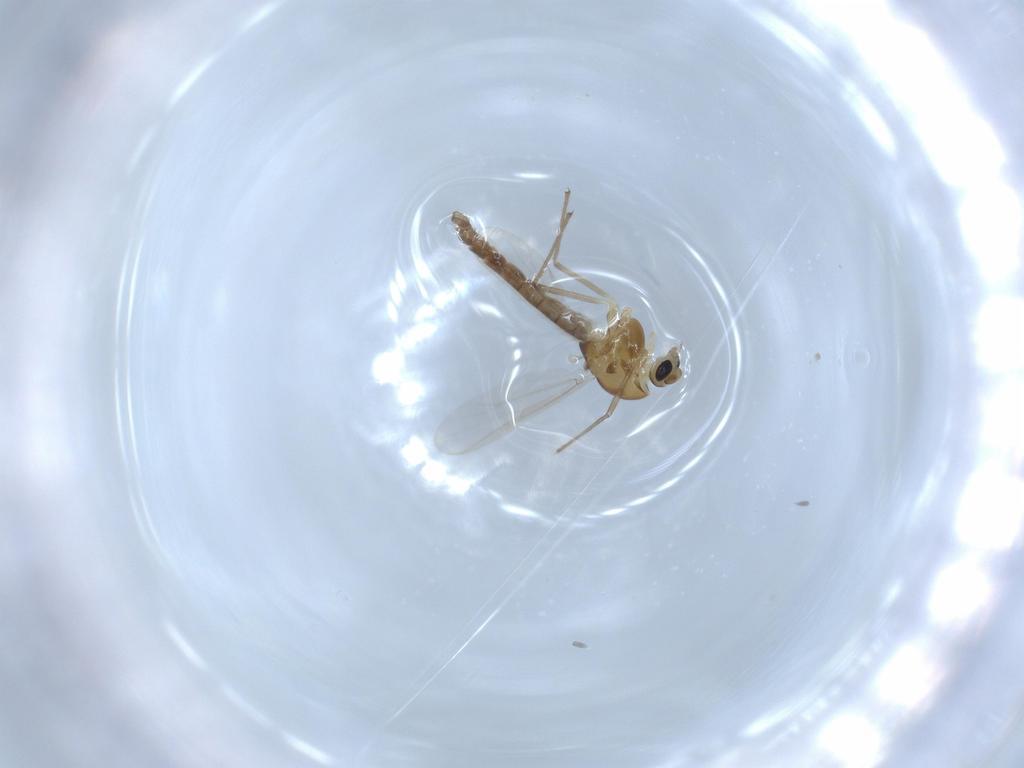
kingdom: Animalia
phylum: Arthropoda
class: Insecta
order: Diptera
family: Chironomidae
